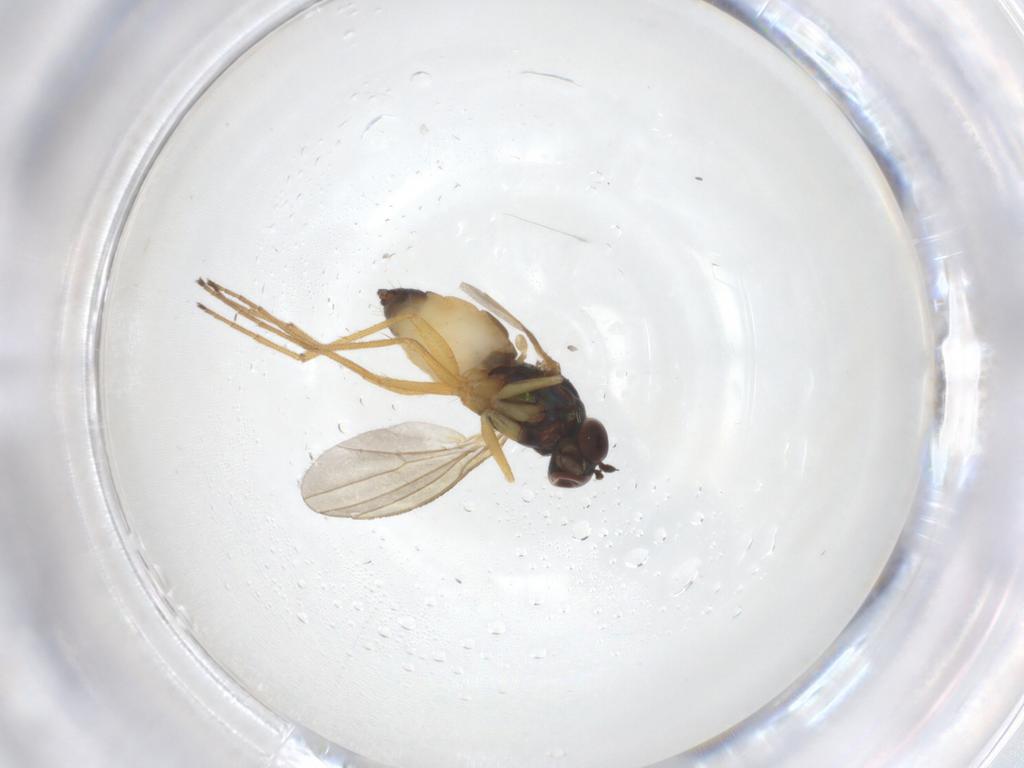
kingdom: Animalia
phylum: Arthropoda
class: Insecta
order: Diptera
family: Dolichopodidae
